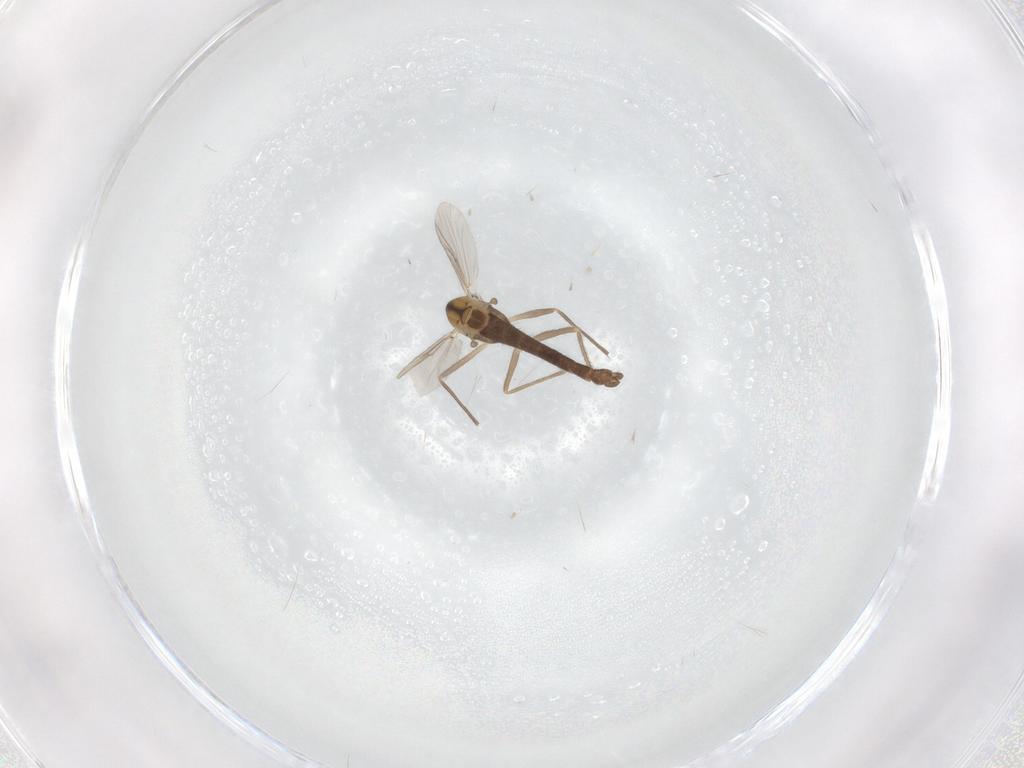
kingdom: Animalia
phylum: Arthropoda
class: Insecta
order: Diptera
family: Chironomidae
